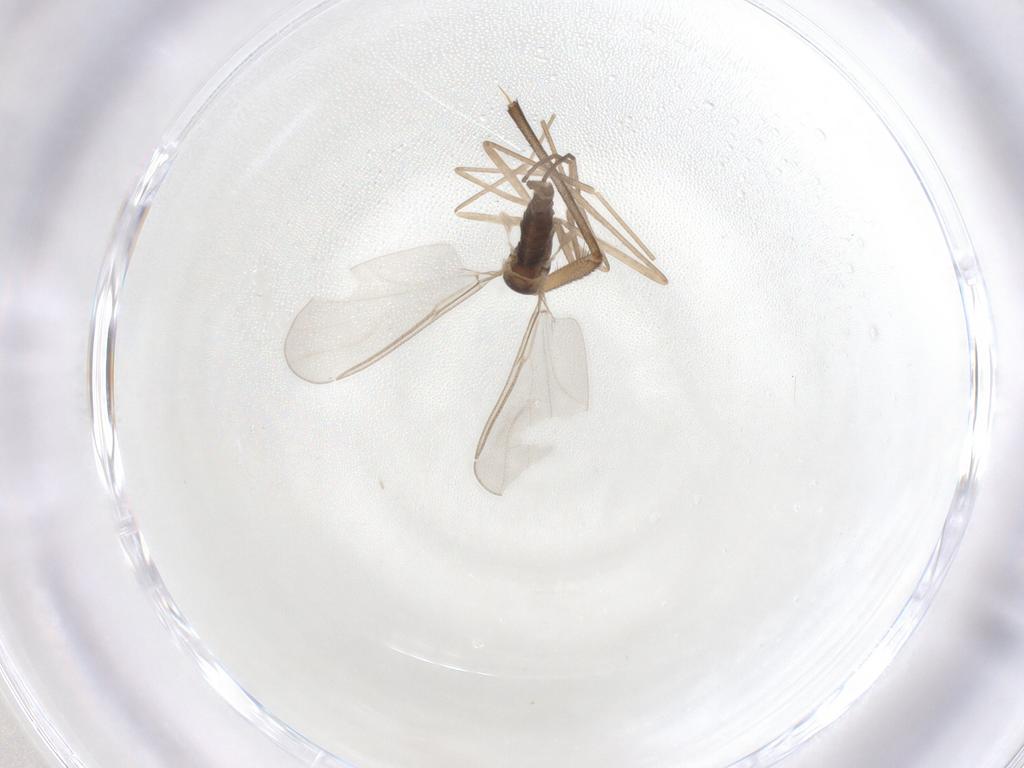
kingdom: Animalia
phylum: Arthropoda
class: Insecta
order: Diptera
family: Cecidomyiidae
